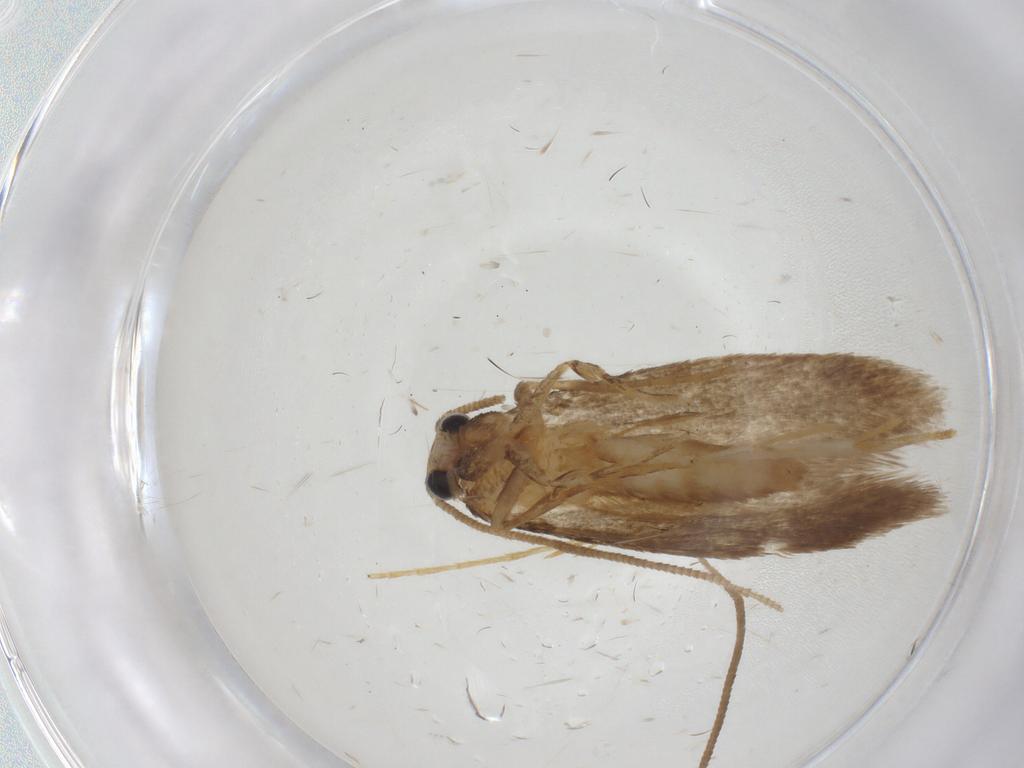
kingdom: Animalia
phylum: Arthropoda
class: Insecta
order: Zygentoma
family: Lepismatidae
